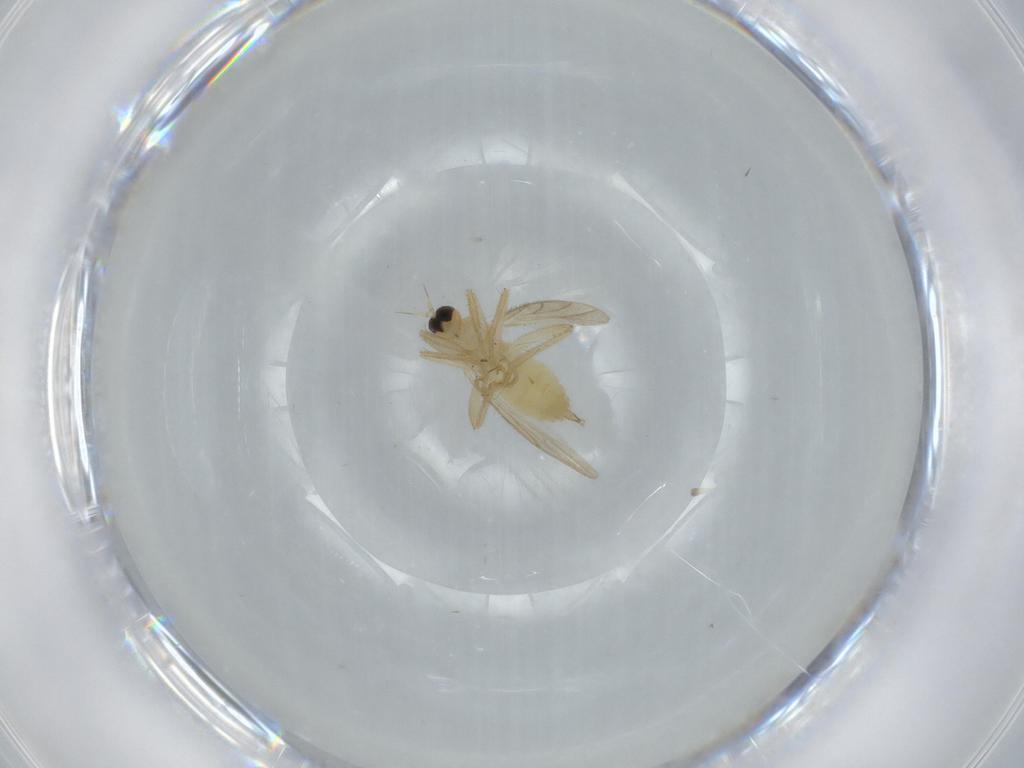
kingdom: Animalia
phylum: Arthropoda
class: Insecta
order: Diptera
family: Hybotidae
